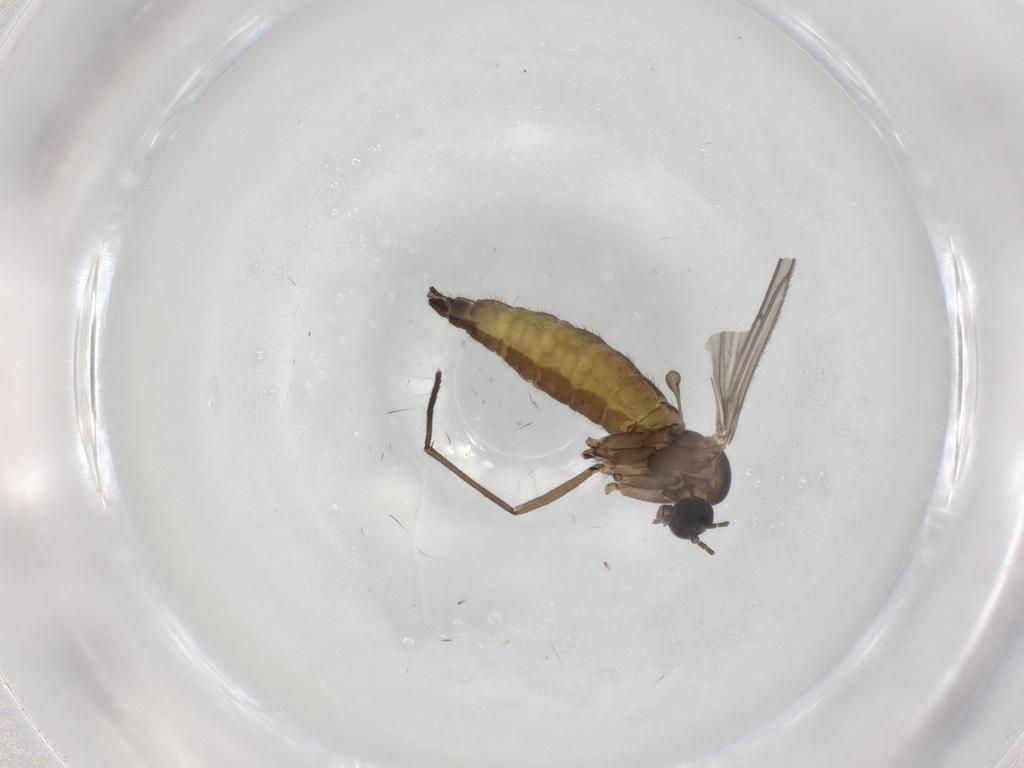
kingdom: Animalia
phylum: Arthropoda
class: Insecta
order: Diptera
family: Sciaridae
